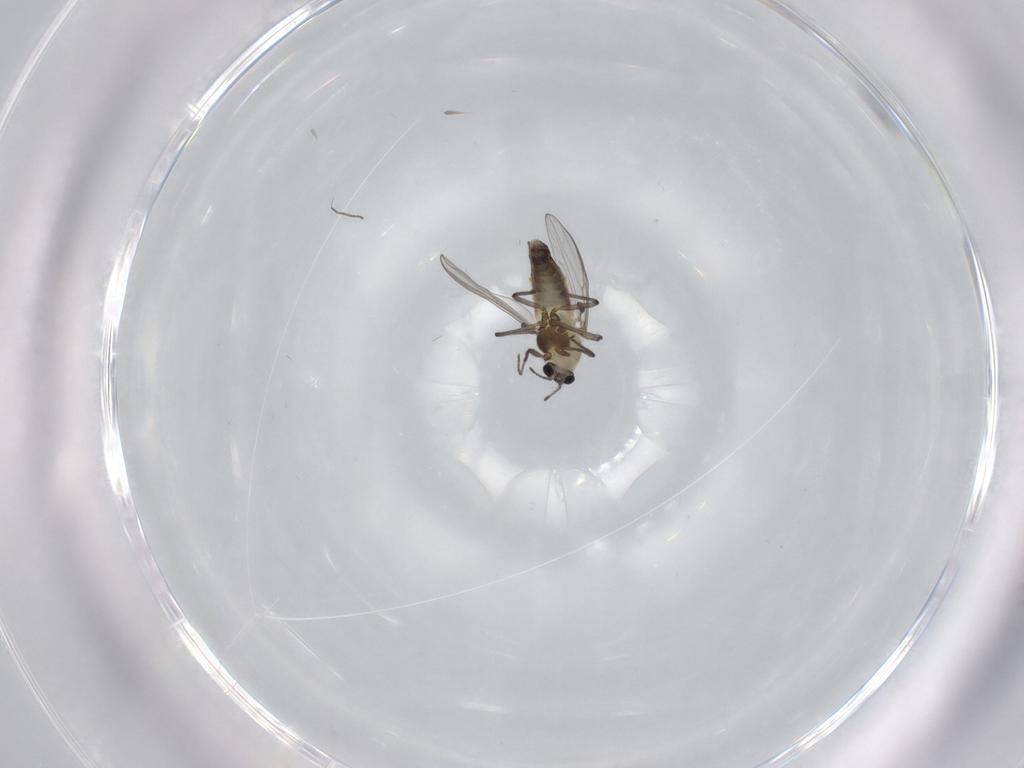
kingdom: Animalia
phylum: Arthropoda
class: Insecta
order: Diptera
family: Chironomidae
